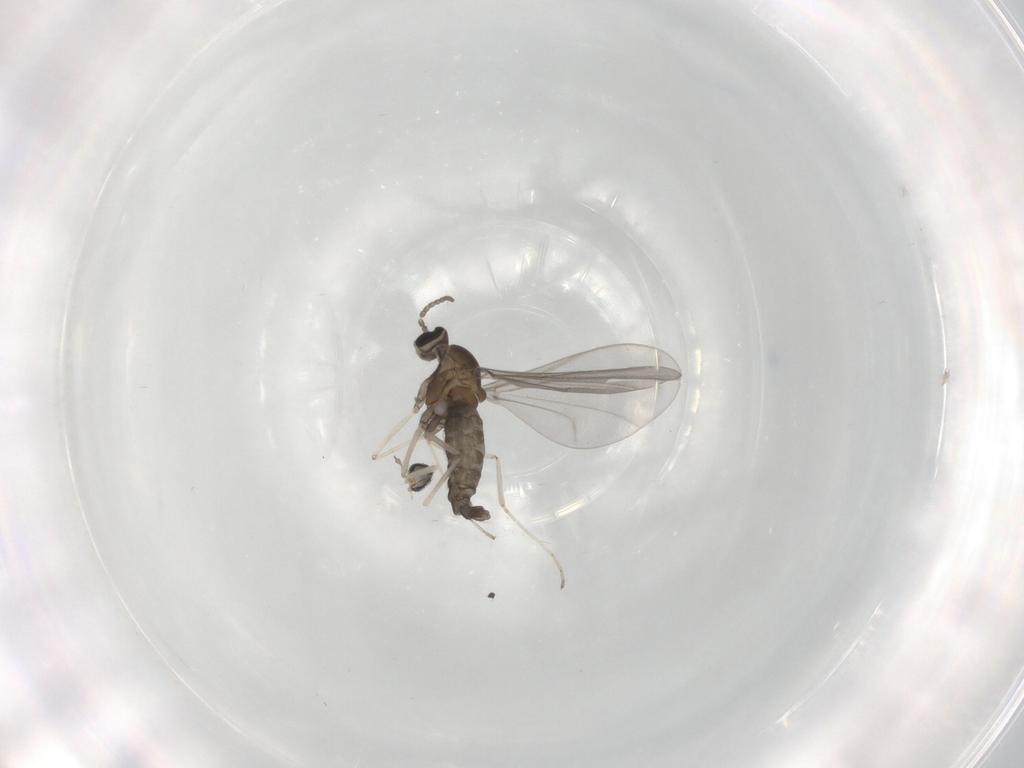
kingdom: Animalia
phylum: Arthropoda
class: Insecta
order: Diptera
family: Cecidomyiidae
